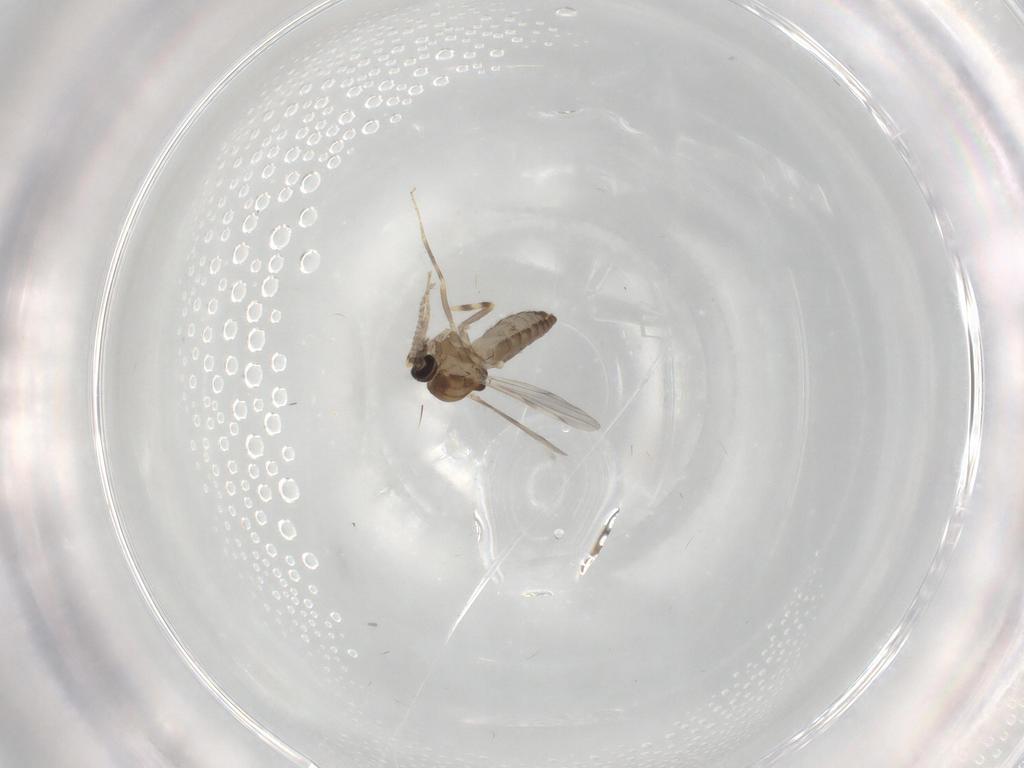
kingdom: Animalia
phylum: Arthropoda
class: Insecta
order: Diptera
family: Ceratopogonidae
